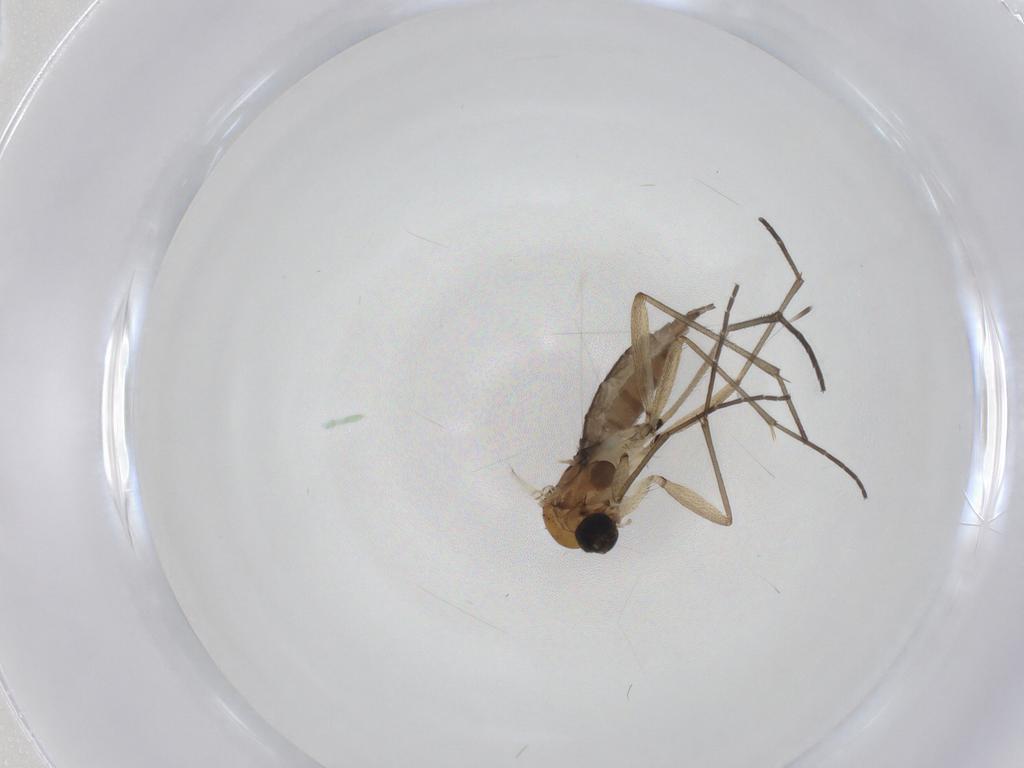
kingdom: Animalia
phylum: Arthropoda
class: Insecta
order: Diptera
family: Sciaridae
